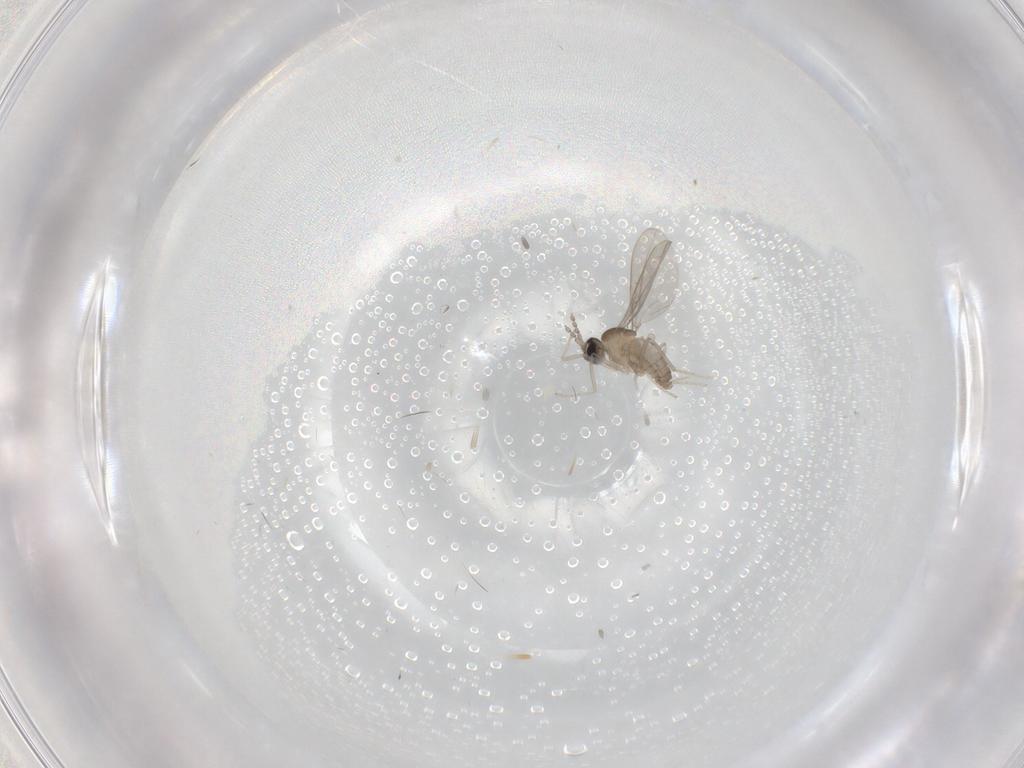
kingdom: Animalia
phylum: Arthropoda
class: Insecta
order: Diptera
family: Cecidomyiidae
